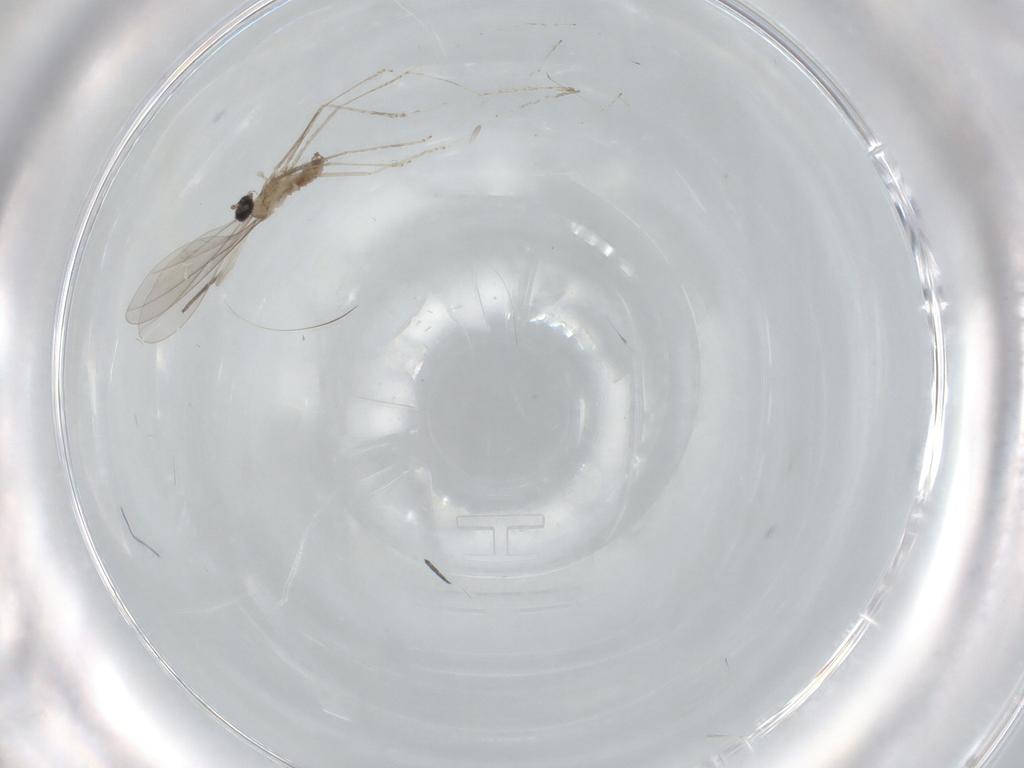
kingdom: Animalia
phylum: Arthropoda
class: Insecta
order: Diptera
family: Cecidomyiidae
